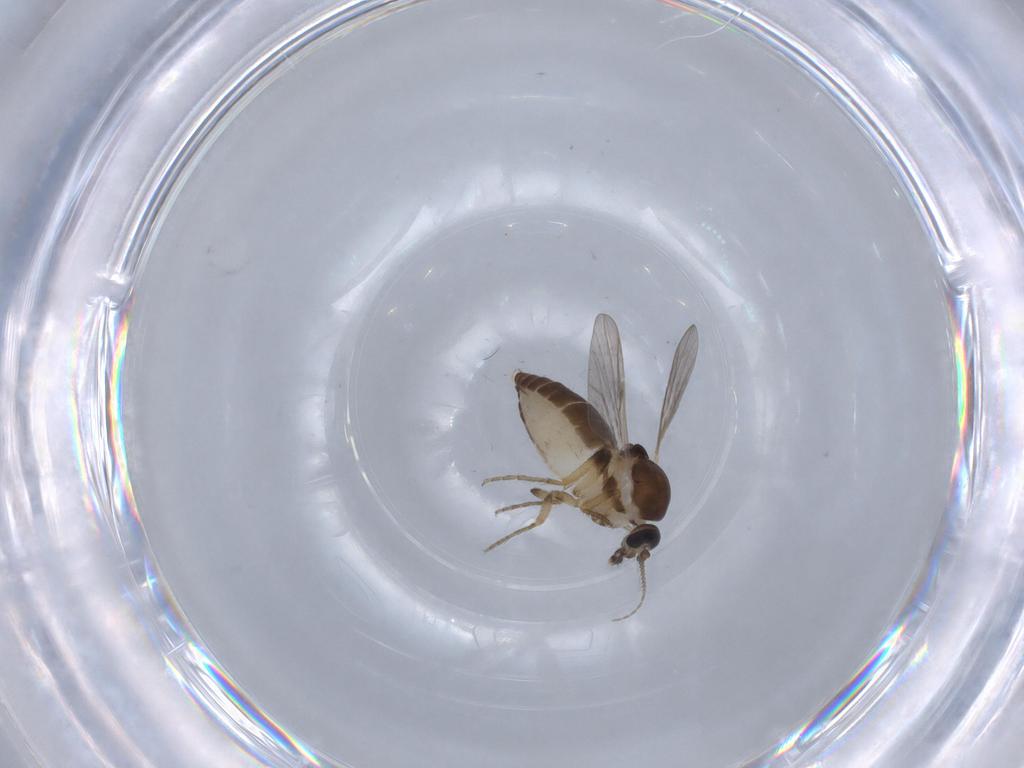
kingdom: Animalia
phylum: Arthropoda
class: Insecta
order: Diptera
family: Ceratopogonidae
